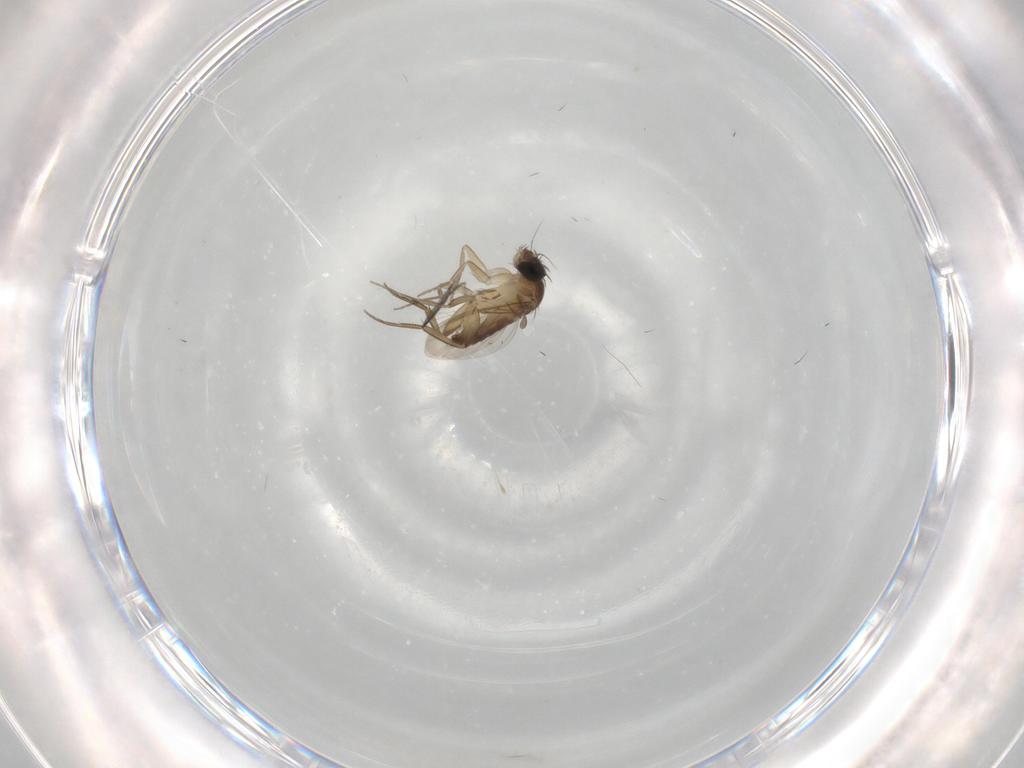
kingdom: Animalia
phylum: Arthropoda
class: Insecta
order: Diptera
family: Phoridae
